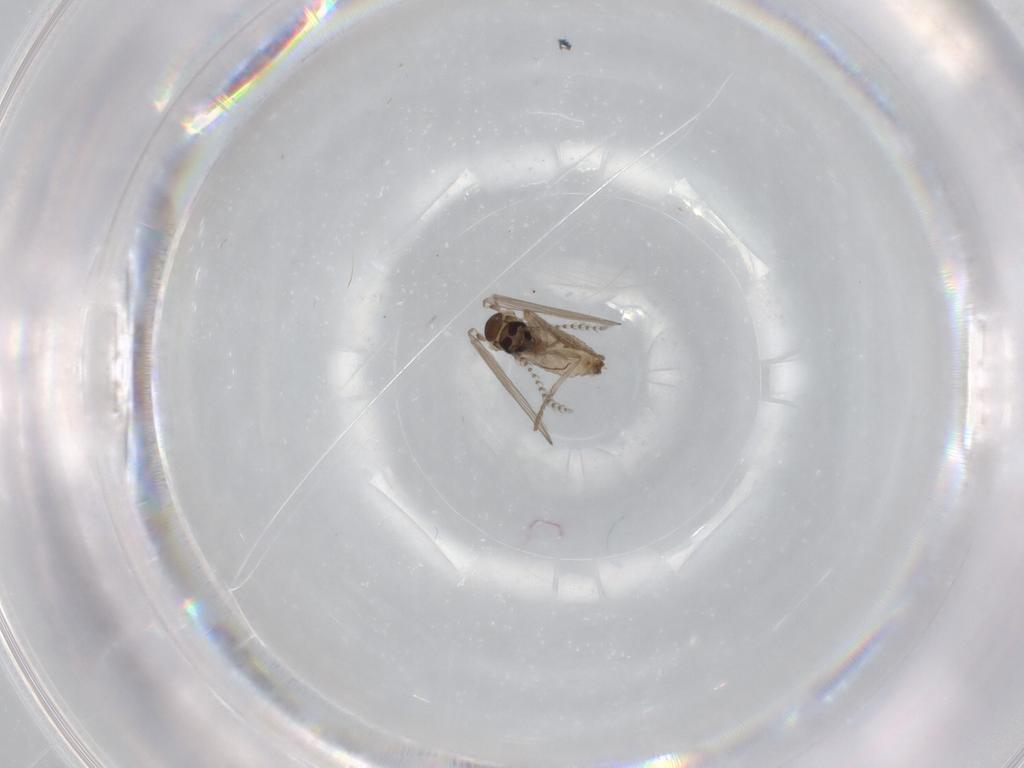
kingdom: Animalia
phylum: Arthropoda
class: Insecta
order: Diptera
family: Psychodidae
